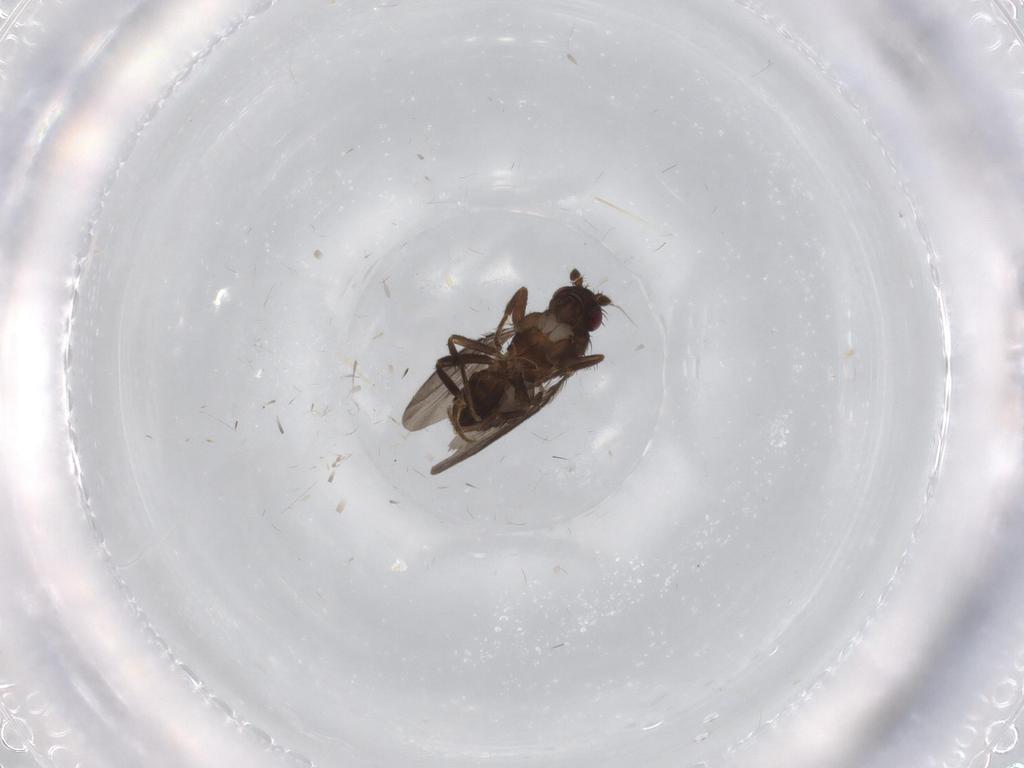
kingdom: Animalia
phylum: Arthropoda
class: Insecta
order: Diptera
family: Sphaeroceridae
